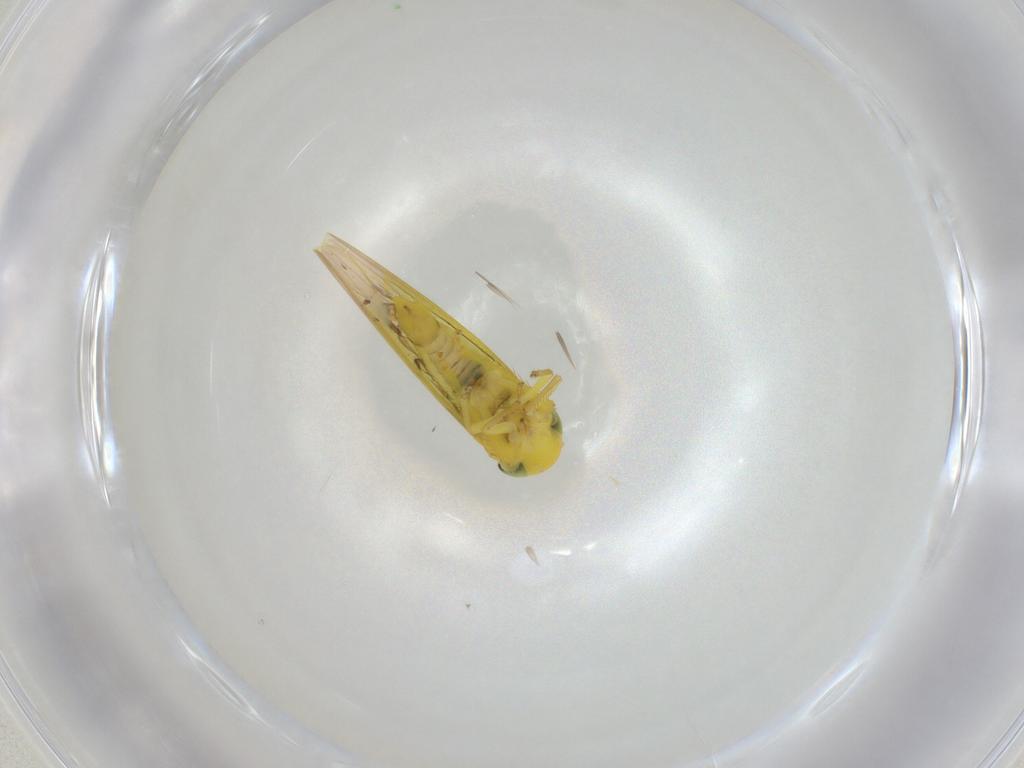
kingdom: Animalia
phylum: Arthropoda
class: Insecta
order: Hemiptera
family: Cicadellidae
